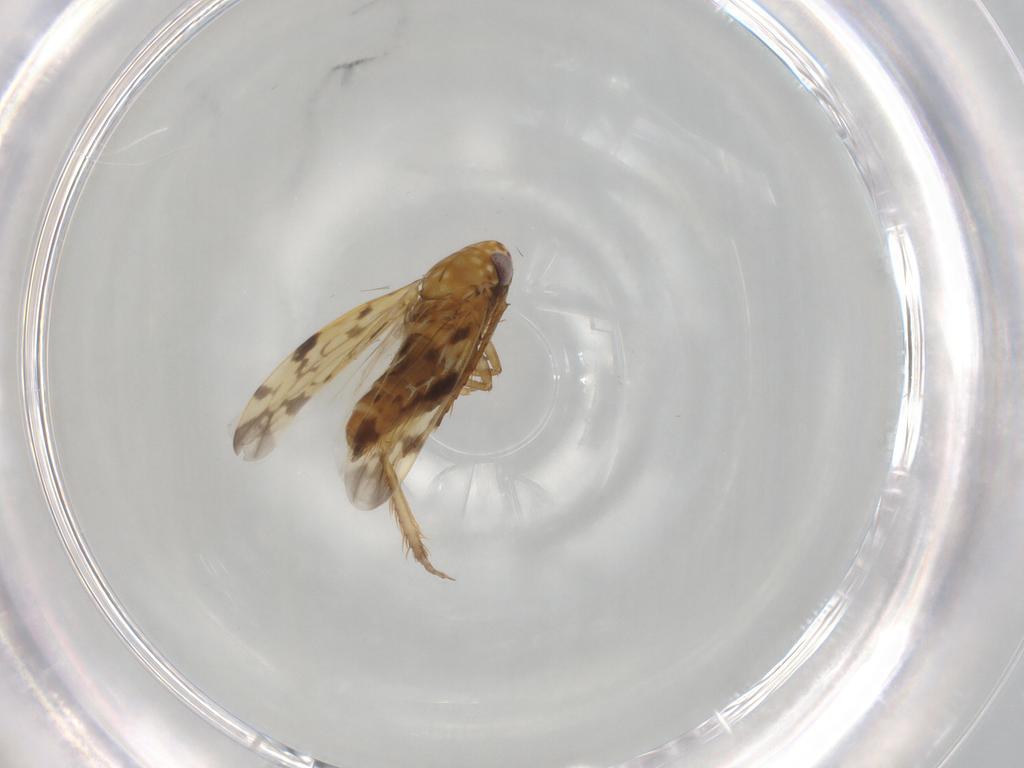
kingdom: Animalia
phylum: Arthropoda
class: Insecta
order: Hemiptera
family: Cicadellidae
